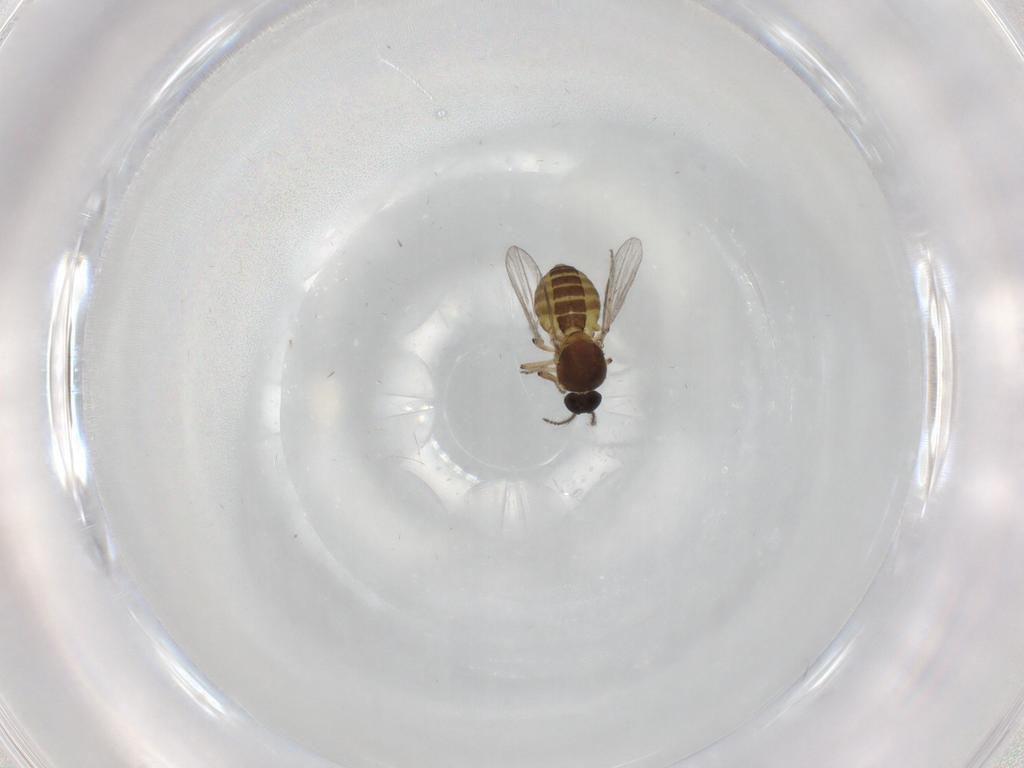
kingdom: Animalia
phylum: Arthropoda
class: Insecta
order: Diptera
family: Ceratopogonidae
